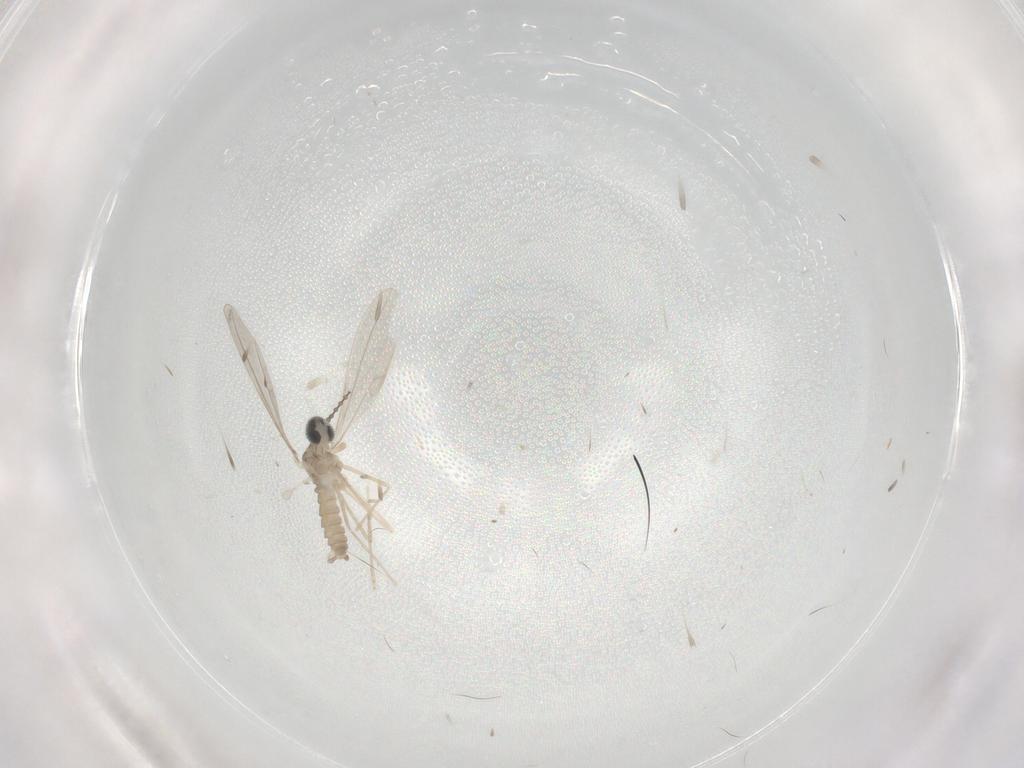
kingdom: Animalia
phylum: Arthropoda
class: Insecta
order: Diptera
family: Cecidomyiidae
